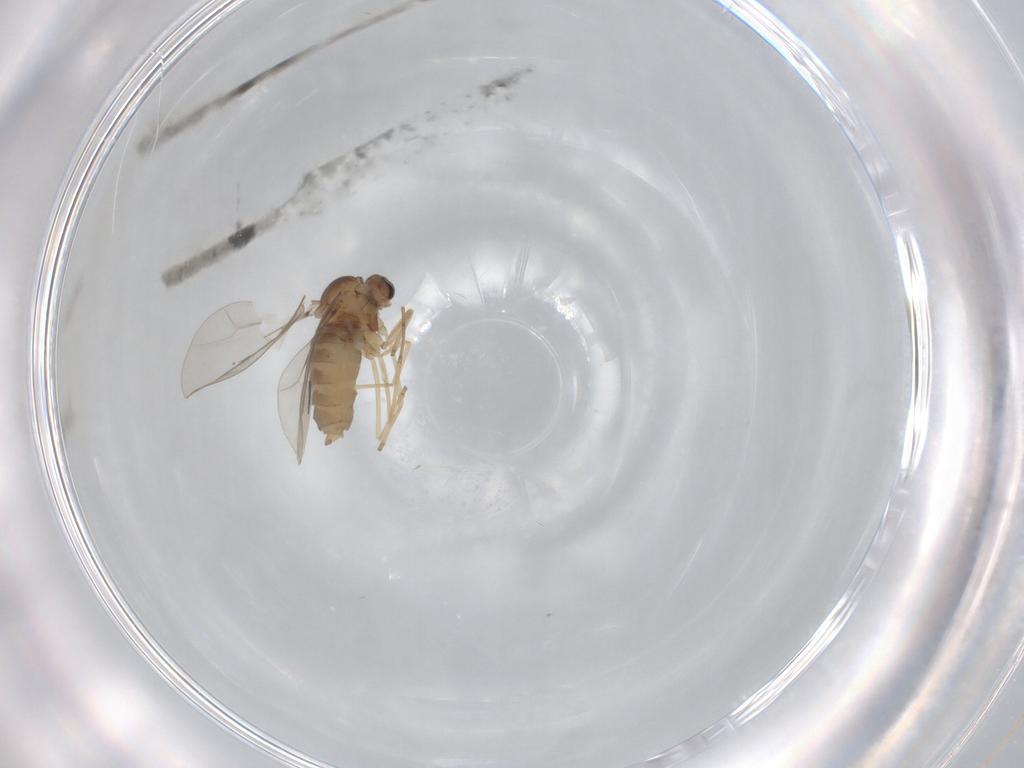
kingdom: Animalia
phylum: Arthropoda
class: Insecta
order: Diptera
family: Cecidomyiidae
